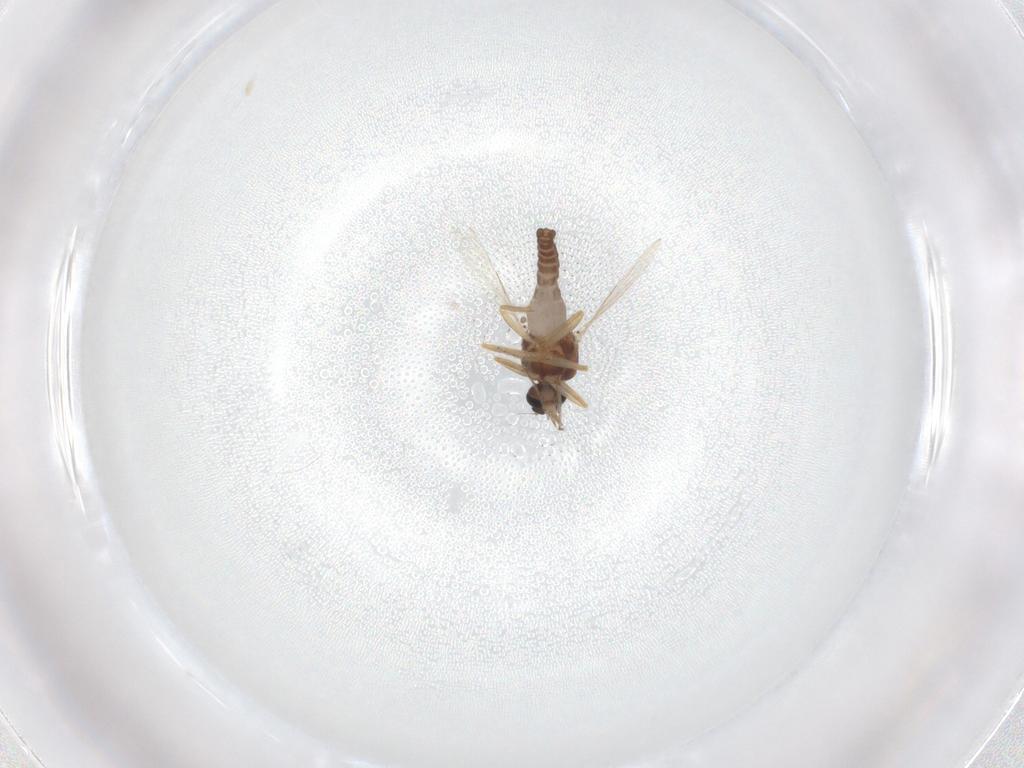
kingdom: Animalia
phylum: Arthropoda
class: Insecta
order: Diptera
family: Ceratopogonidae
